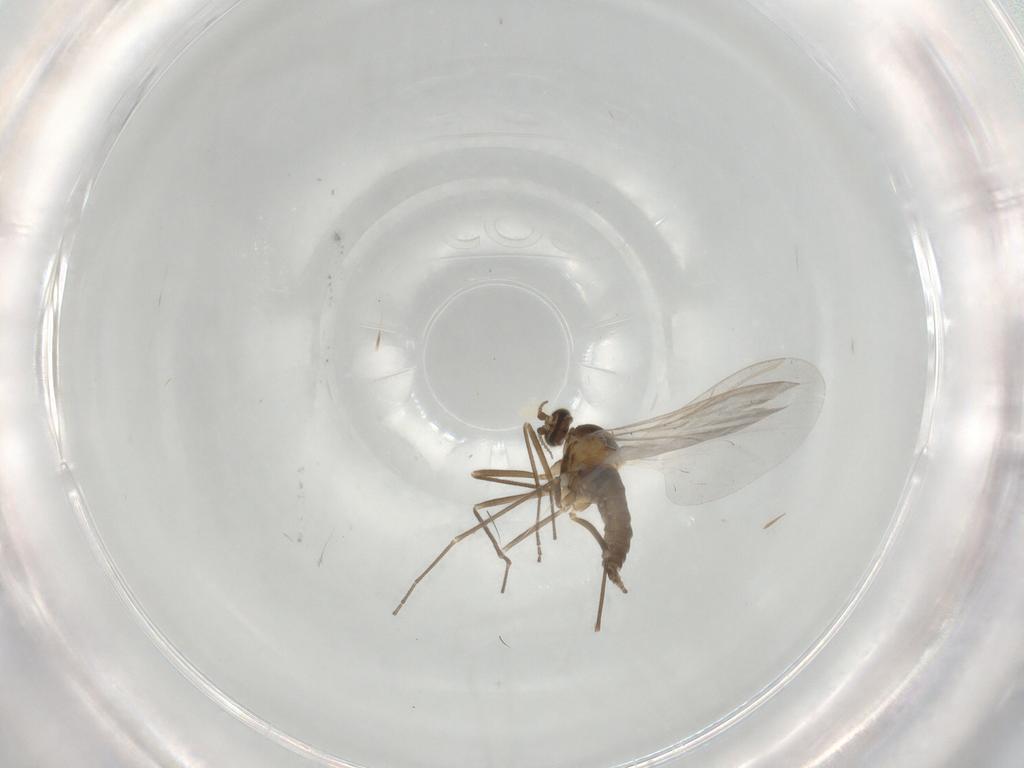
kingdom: Animalia
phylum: Arthropoda
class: Insecta
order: Diptera
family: Cecidomyiidae
